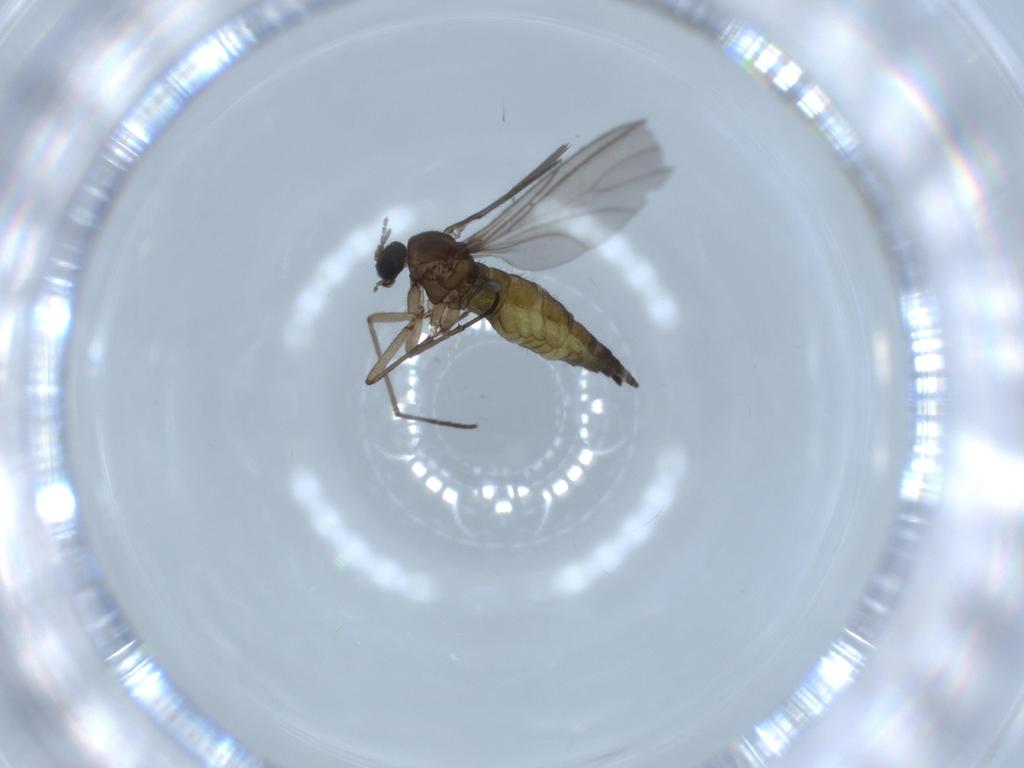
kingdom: Animalia
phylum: Arthropoda
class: Insecta
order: Diptera
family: Sciaridae
